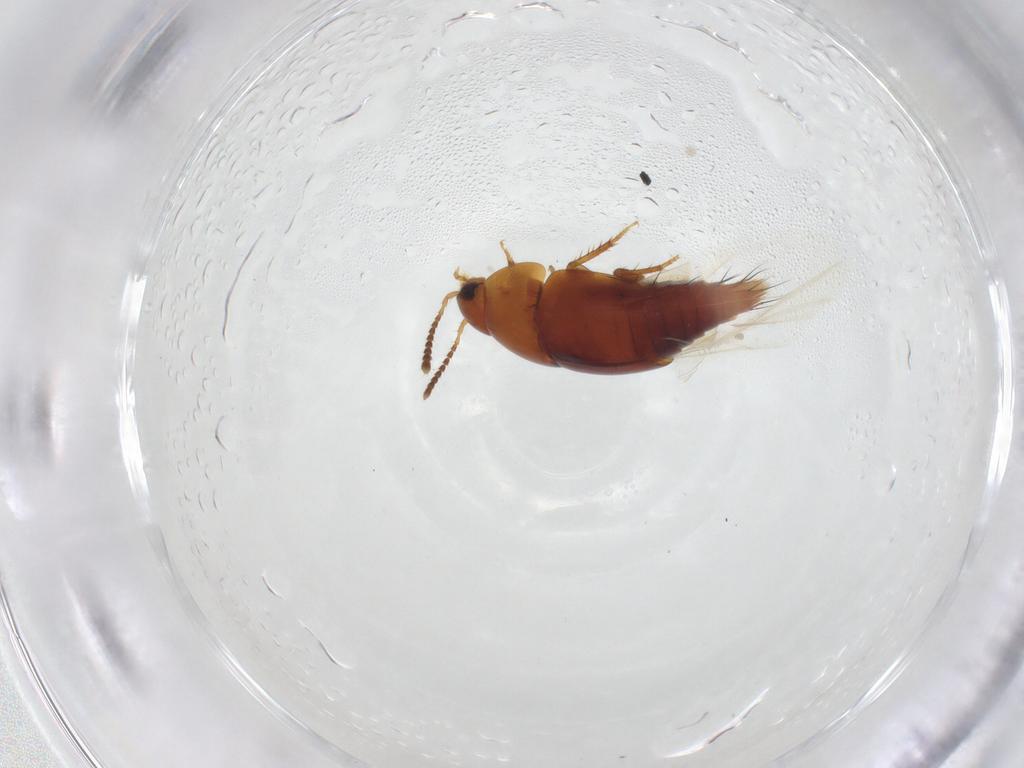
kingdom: Animalia
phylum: Arthropoda
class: Insecta
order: Coleoptera
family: Staphylinidae
